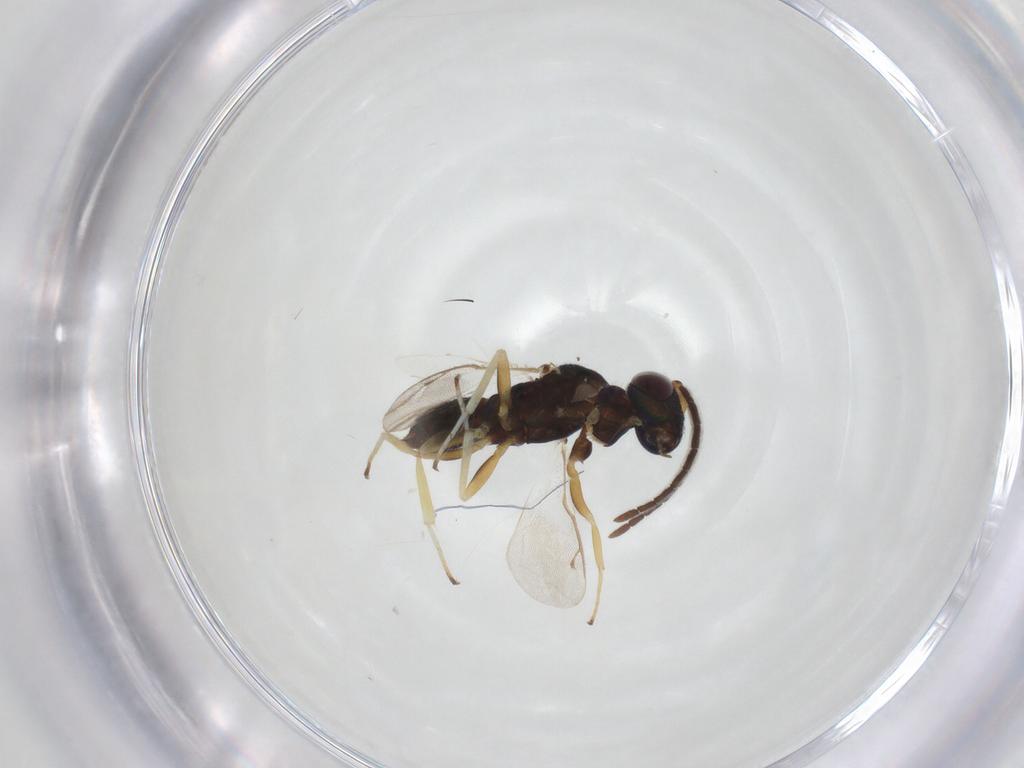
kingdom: Animalia
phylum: Arthropoda
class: Insecta
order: Hymenoptera
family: Eupelmidae
